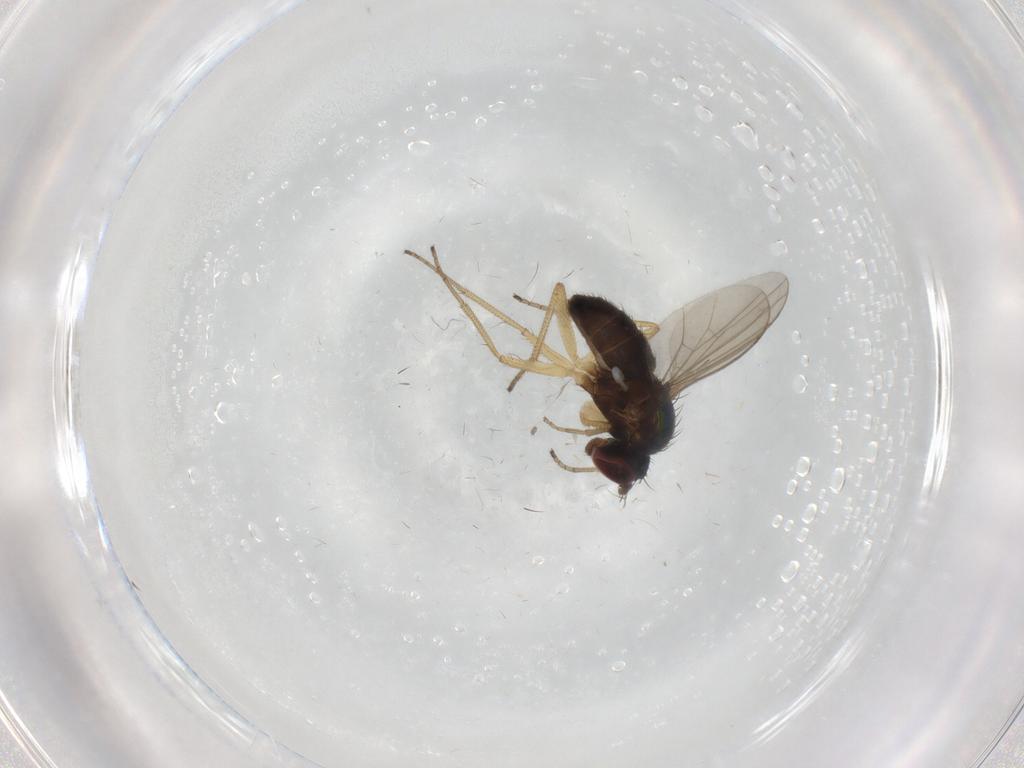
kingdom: Animalia
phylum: Arthropoda
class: Insecta
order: Diptera
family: Dolichopodidae
